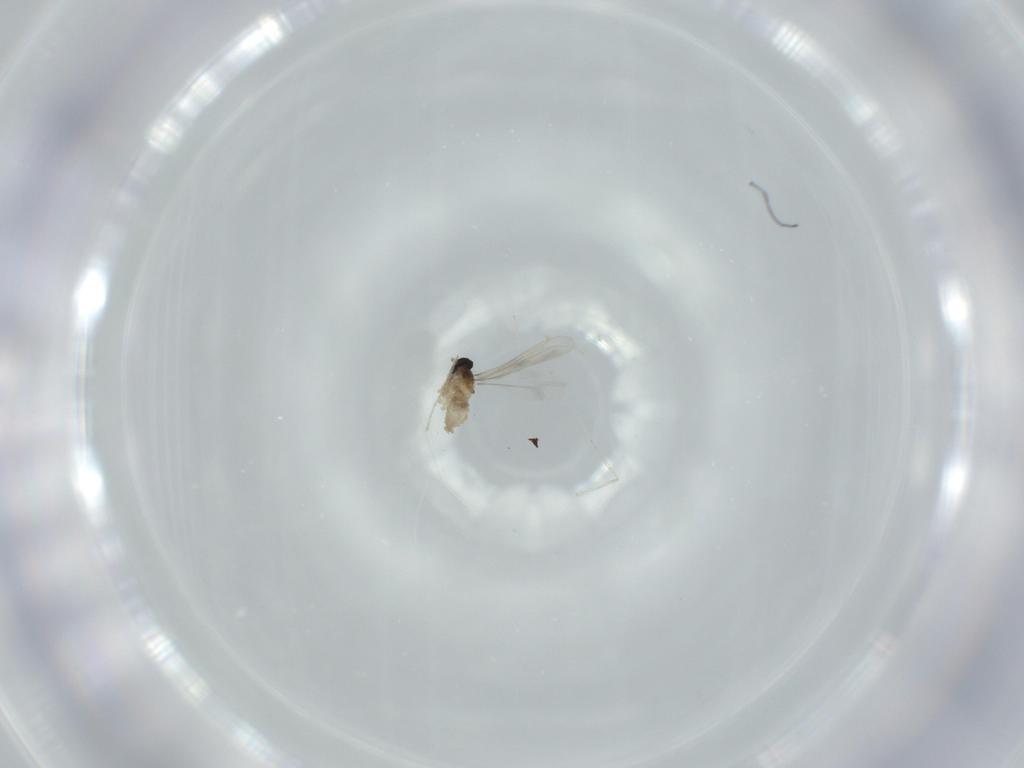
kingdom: Animalia
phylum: Arthropoda
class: Insecta
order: Diptera
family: Cecidomyiidae
